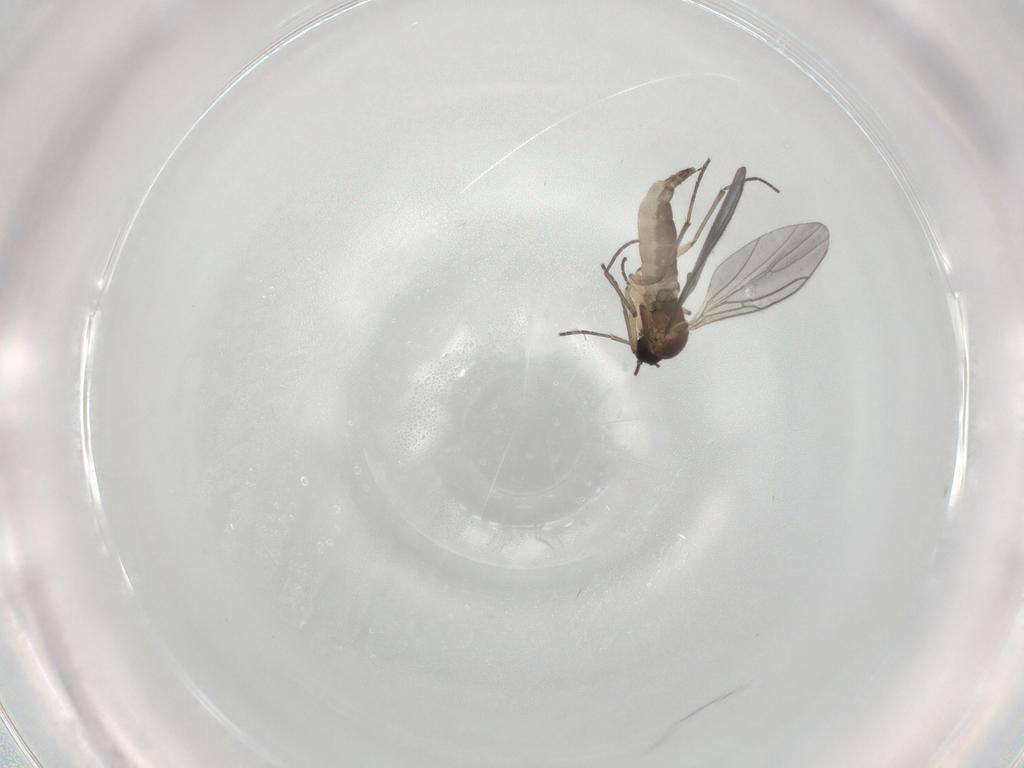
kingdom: Animalia
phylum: Arthropoda
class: Insecta
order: Diptera
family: Sciaridae
